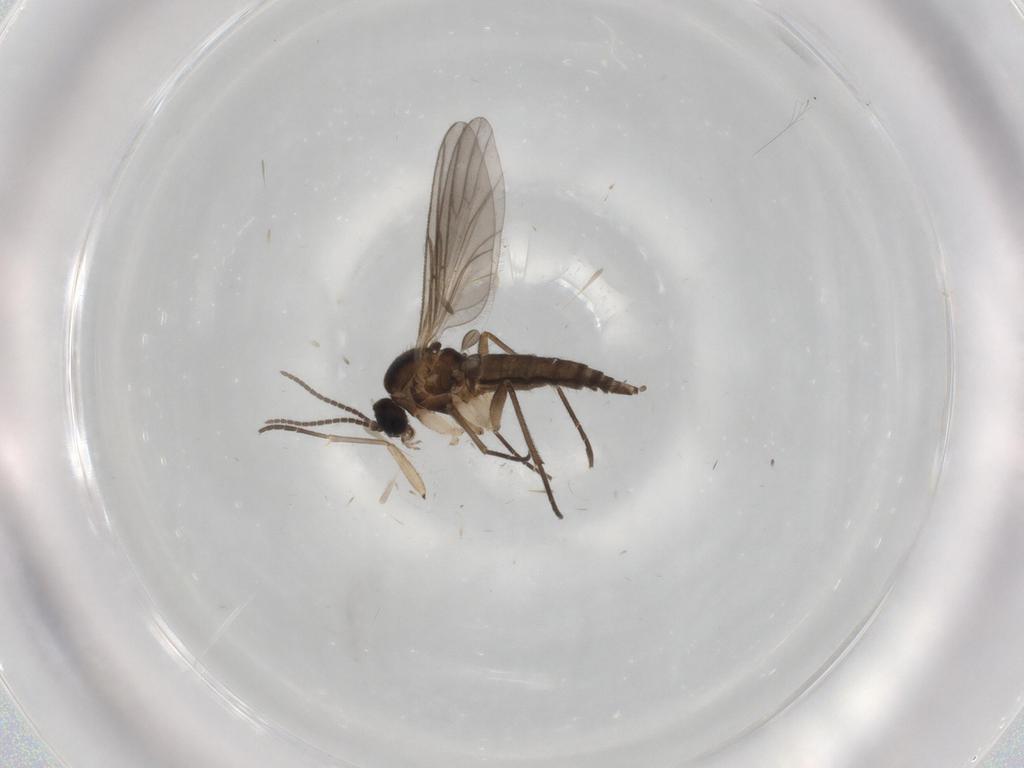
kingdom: Animalia
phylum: Arthropoda
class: Insecta
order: Diptera
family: Sciaridae
